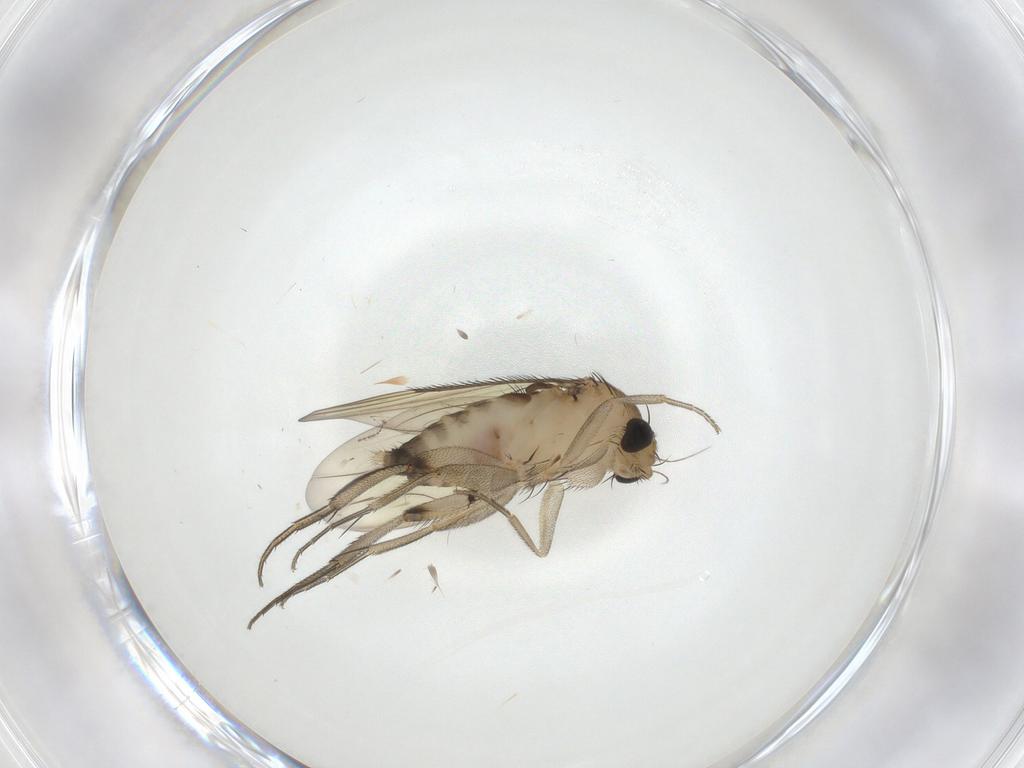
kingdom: Animalia
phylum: Arthropoda
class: Insecta
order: Diptera
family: Phoridae
